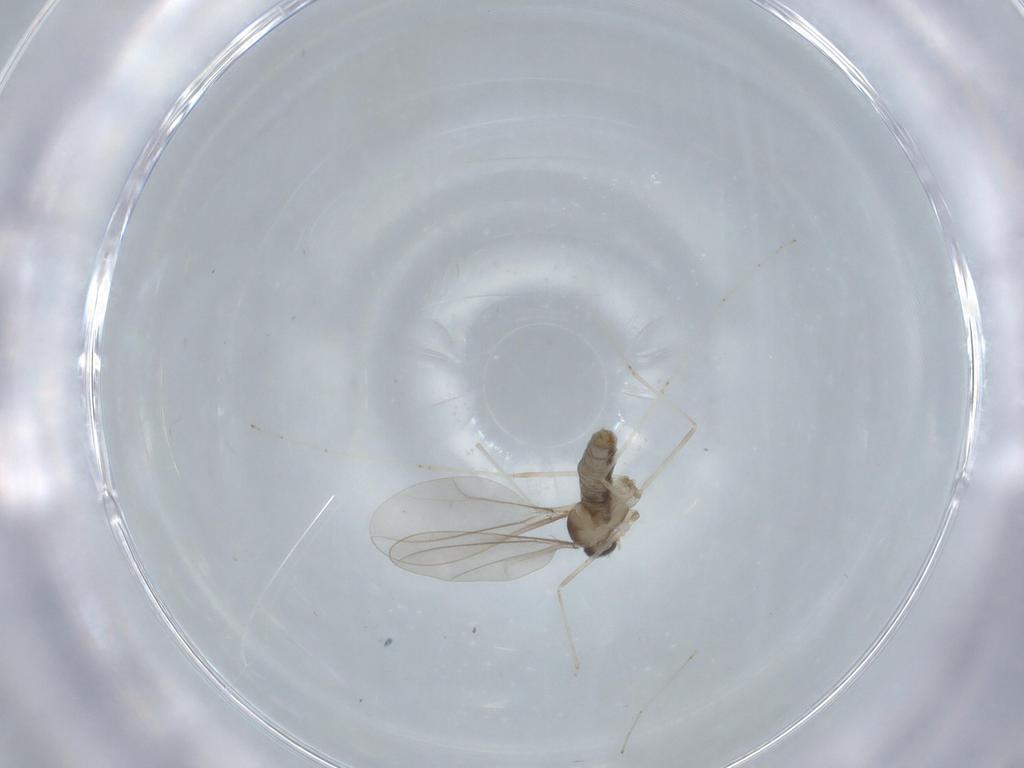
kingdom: Animalia
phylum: Arthropoda
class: Insecta
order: Diptera
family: Cecidomyiidae
